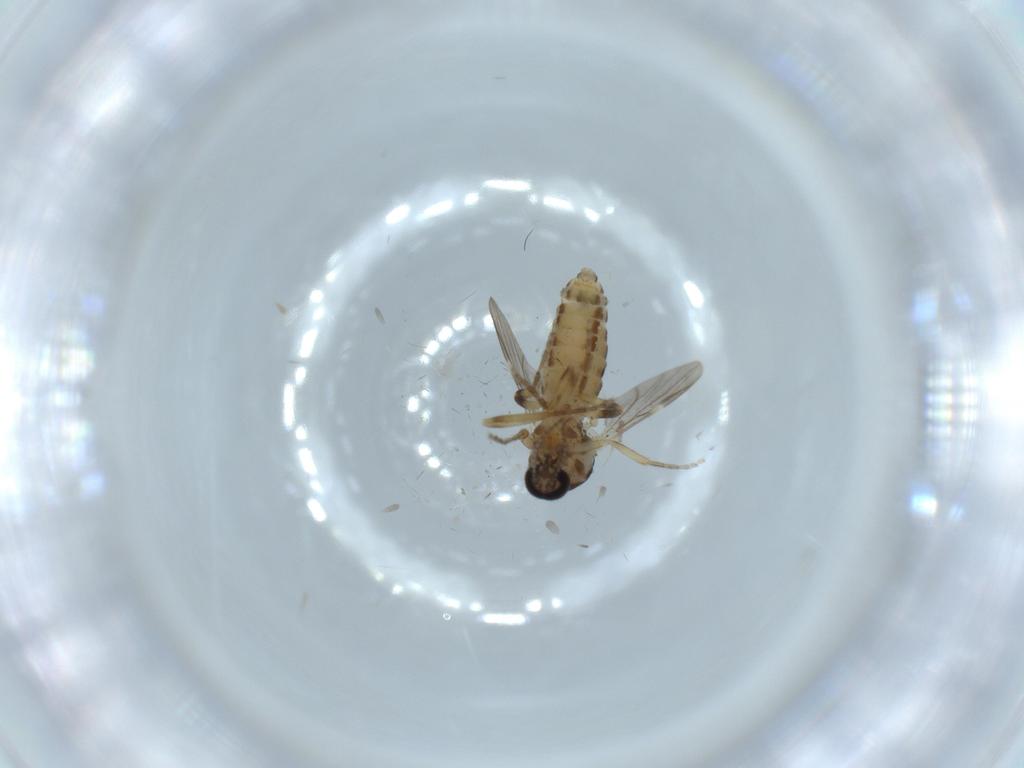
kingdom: Animalia
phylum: Arthropoda
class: Insecta
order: Diptera
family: Ceratopogonidae
